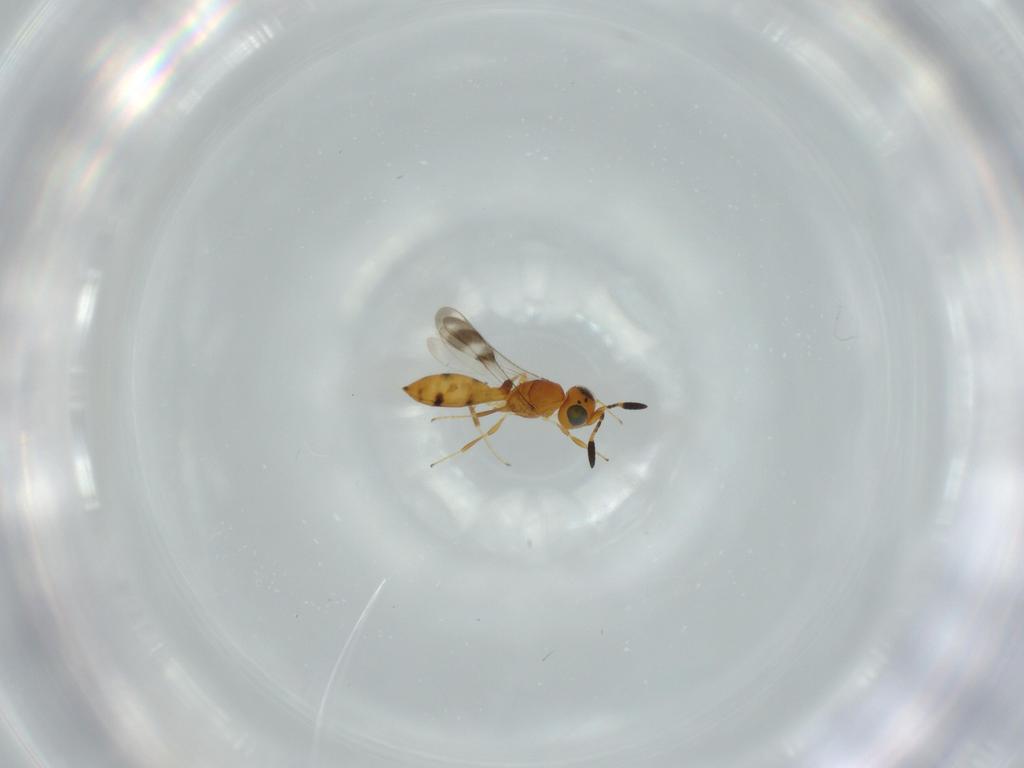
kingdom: Animalia
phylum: Arthropoda
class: Insecta
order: Hymenoptera
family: Scelionidae
